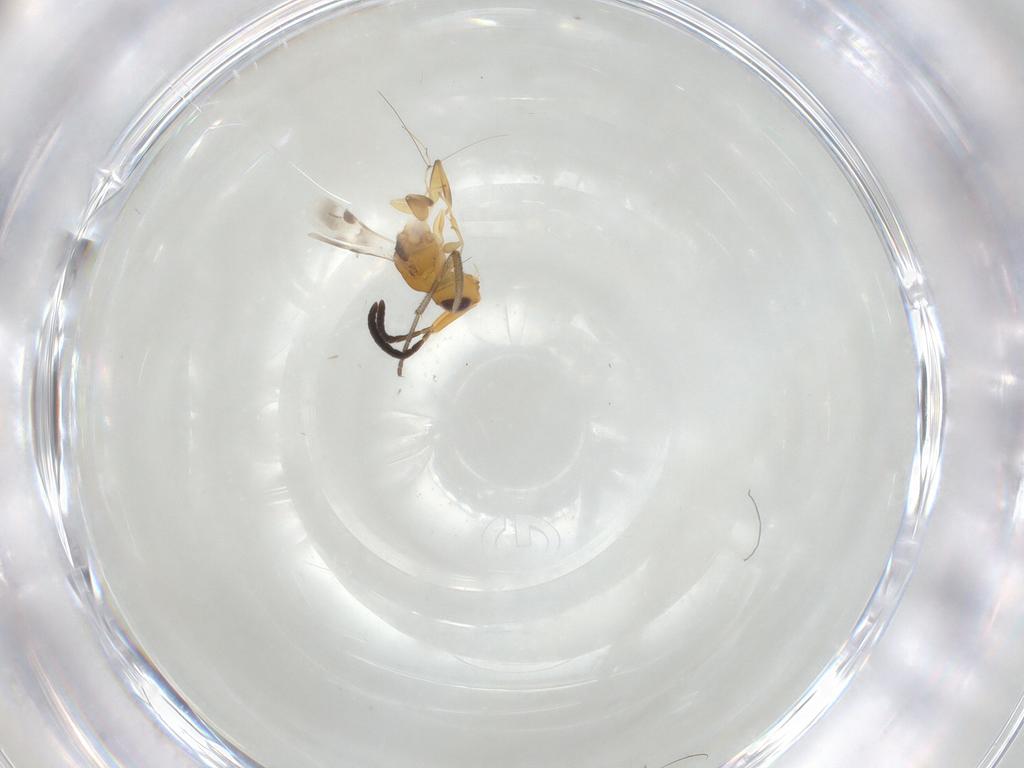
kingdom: Animalia
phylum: Arthropoda
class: Insecta
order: Hymenoptera
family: Megaspilidae
